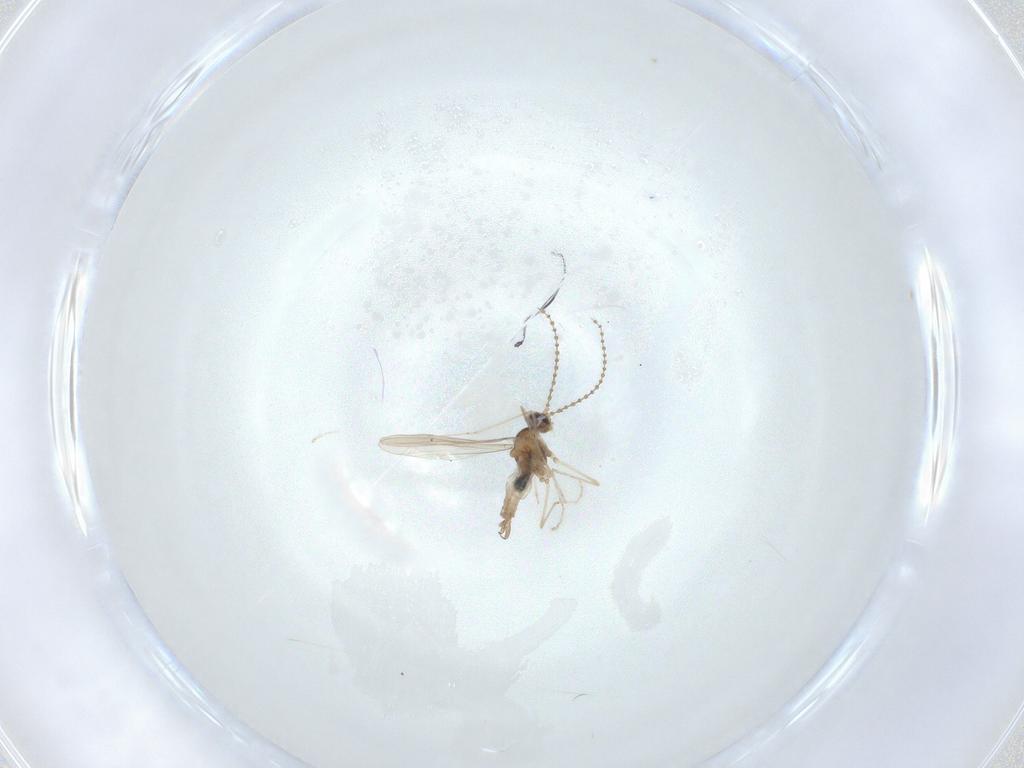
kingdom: Animalia
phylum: Arthropoda
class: Insecta
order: Diptera
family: Cecidomyiidae
